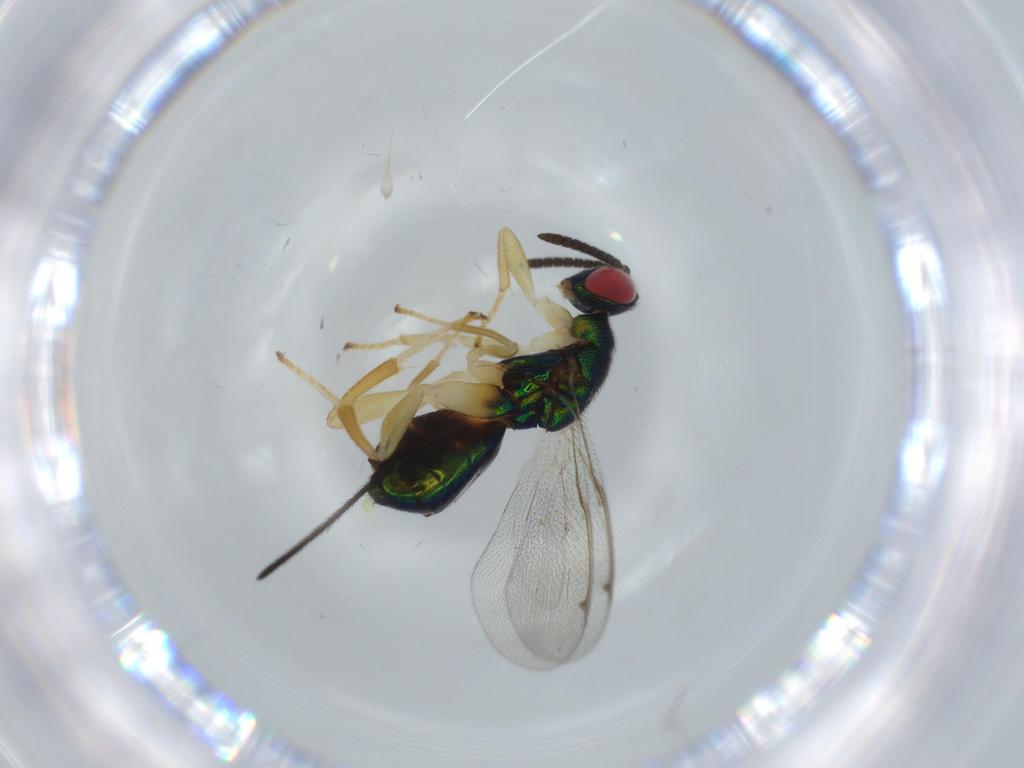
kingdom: Animalia
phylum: Arthropoda
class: Insecta
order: Hymenoptera
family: Torymidae
